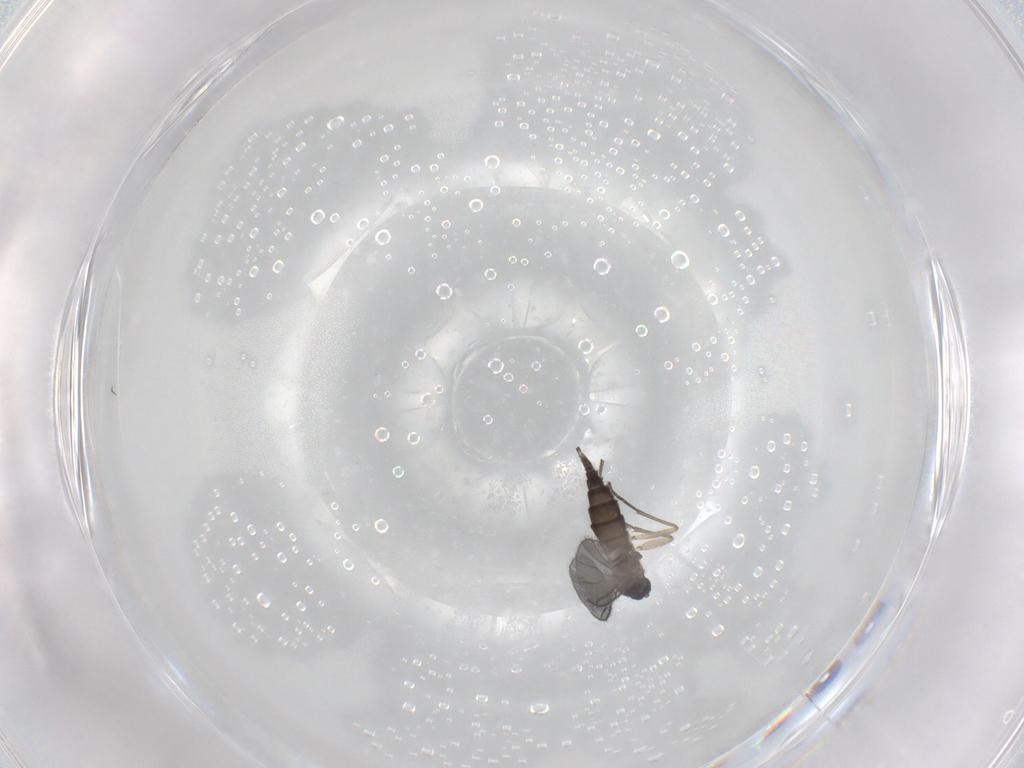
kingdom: Animalia
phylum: Arthropoda
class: Insecta
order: Diptera
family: Sciaridae
